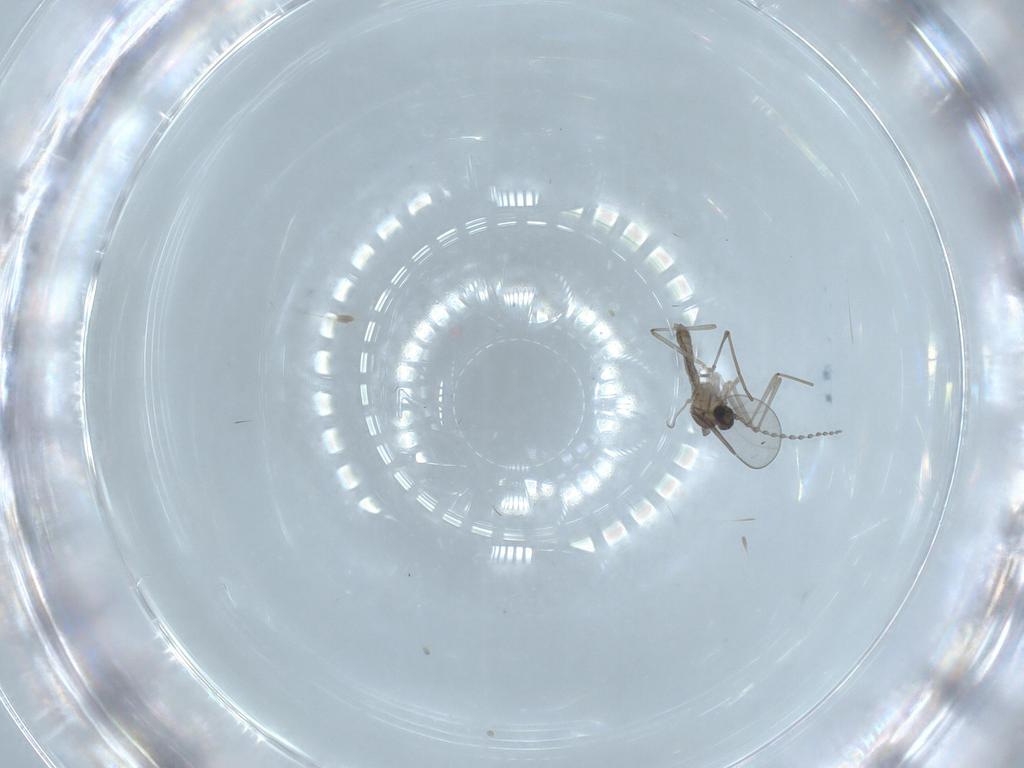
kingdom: Animalia
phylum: Arthropoda
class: Insecta
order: Diptera
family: Cecidomyiidae
